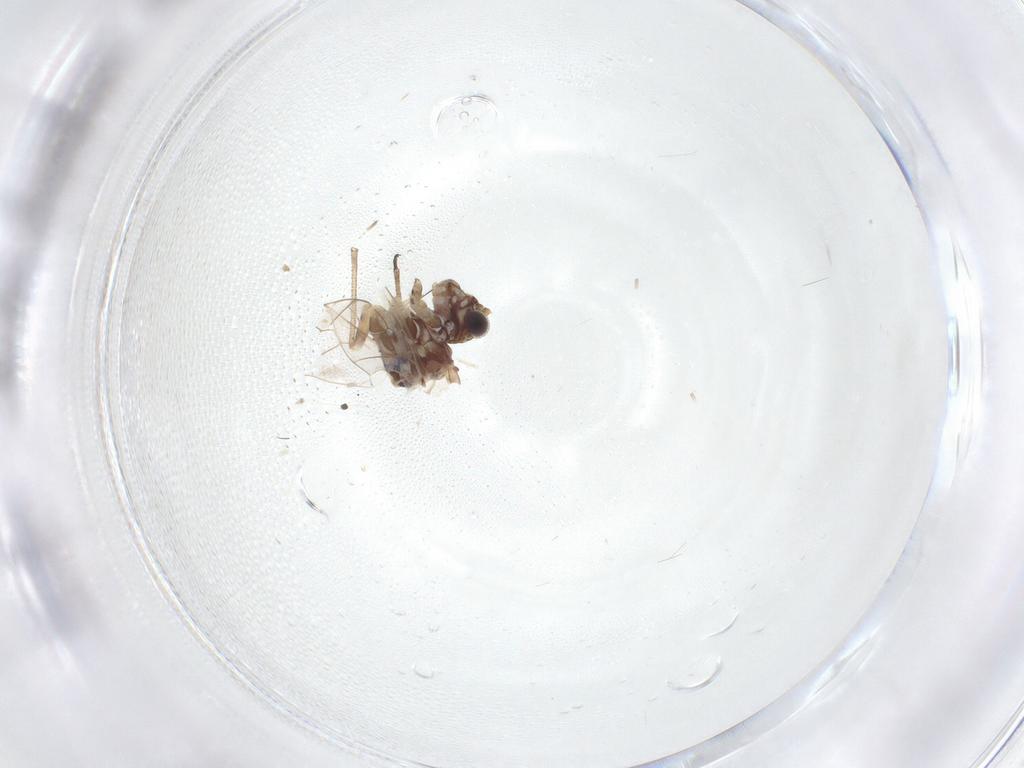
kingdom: Animalia
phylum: Arthropoda
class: Insecta
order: Psocodea
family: Myopsocidae
